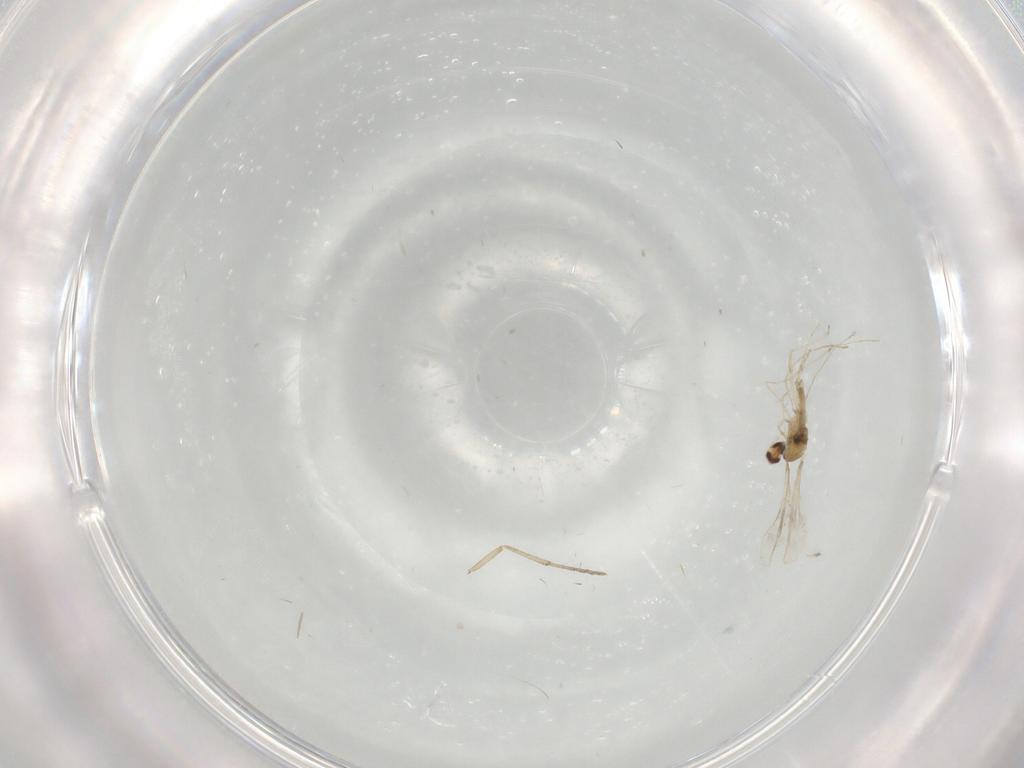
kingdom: Animalia
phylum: Arthropoda
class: Insecta
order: Diptera
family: Cecidomyiidae
